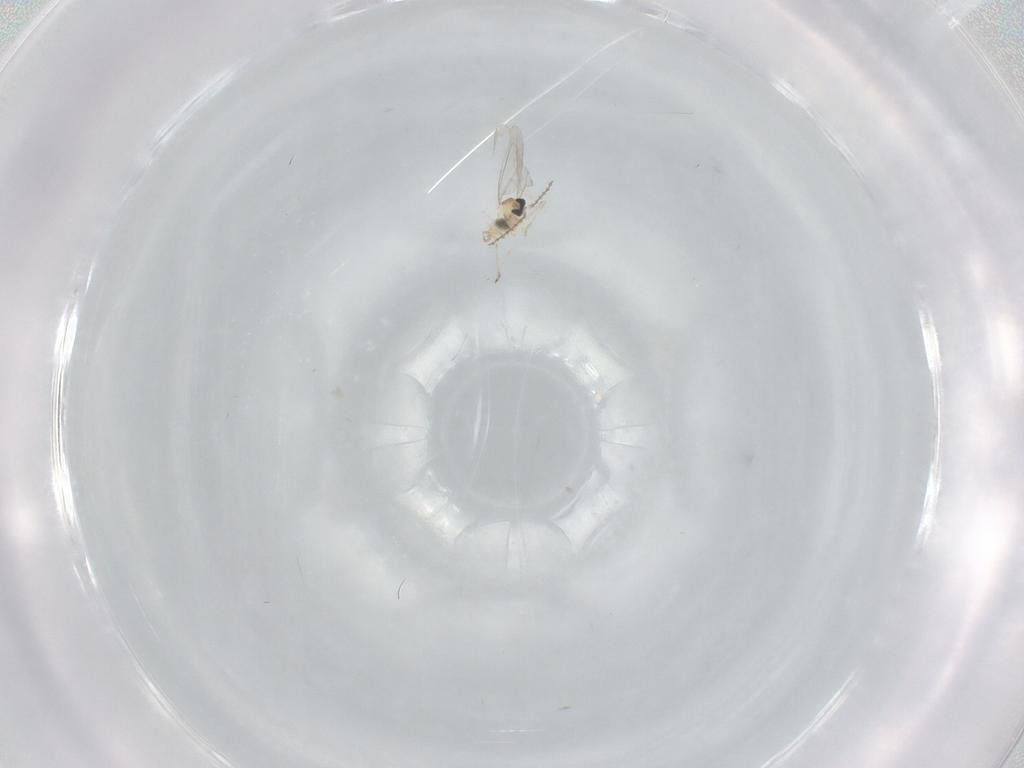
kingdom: Animalia
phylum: Arthropoda
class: Insecta
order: Diptera
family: Cecidomyiidae
